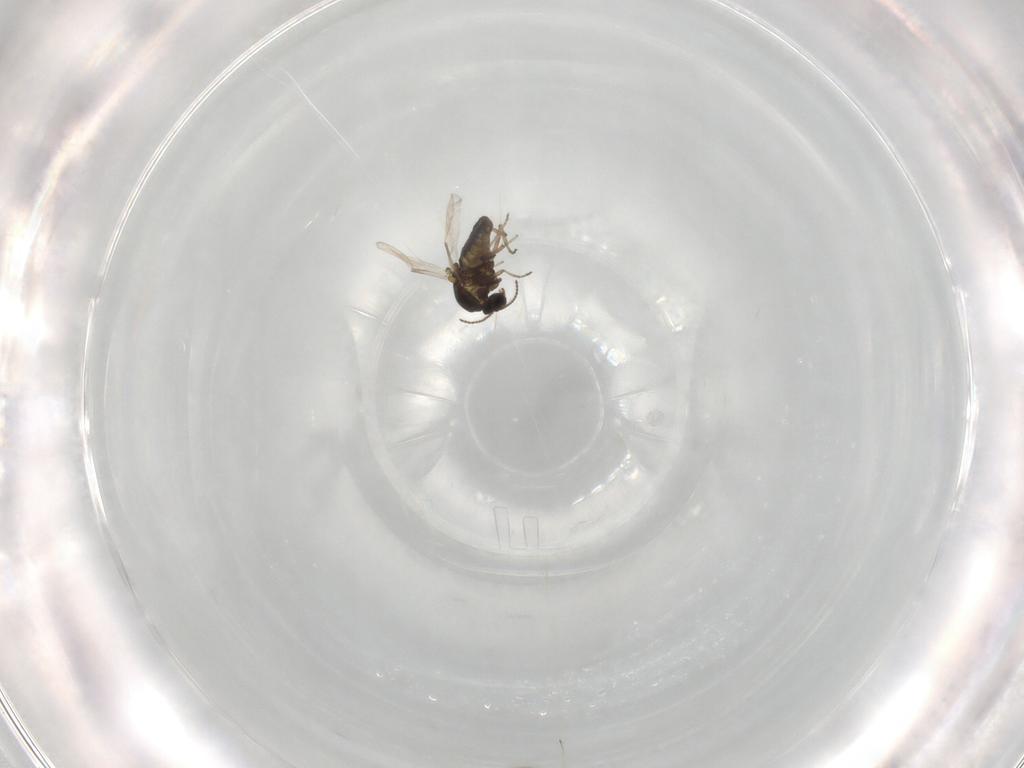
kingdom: Animalia
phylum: Arthropoda
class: Insecta
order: Diptera
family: Ceratopogonidae
